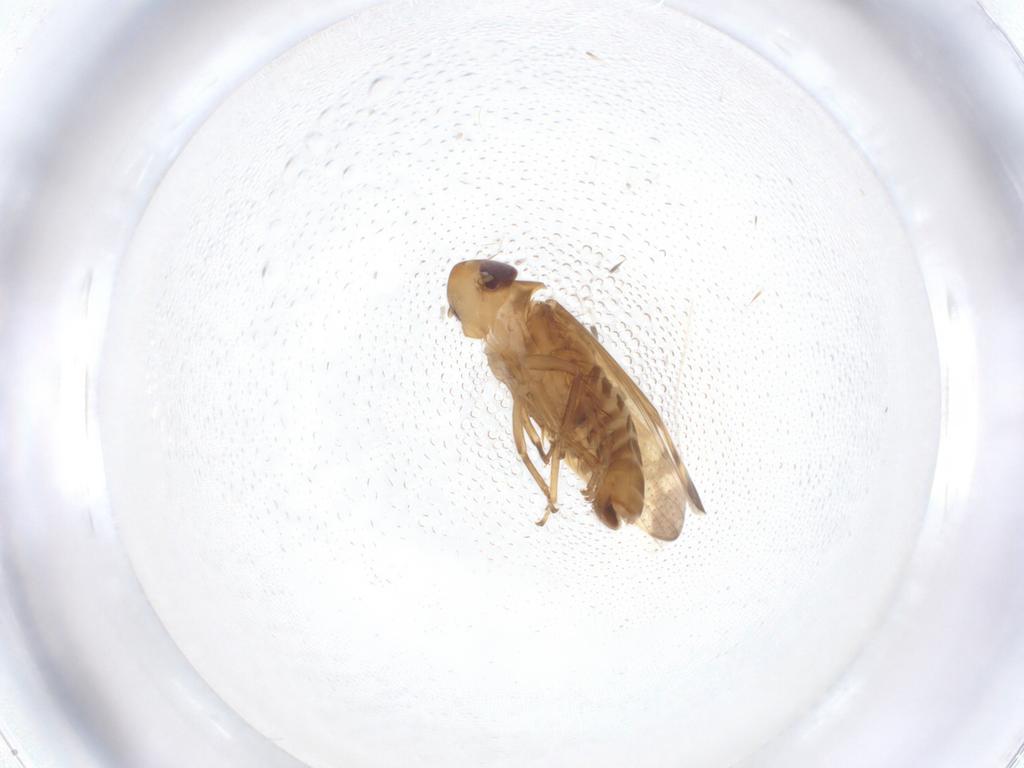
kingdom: Animalia
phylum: Arthropoda
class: Insecta
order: Hemiptera
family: Cicadellidae
